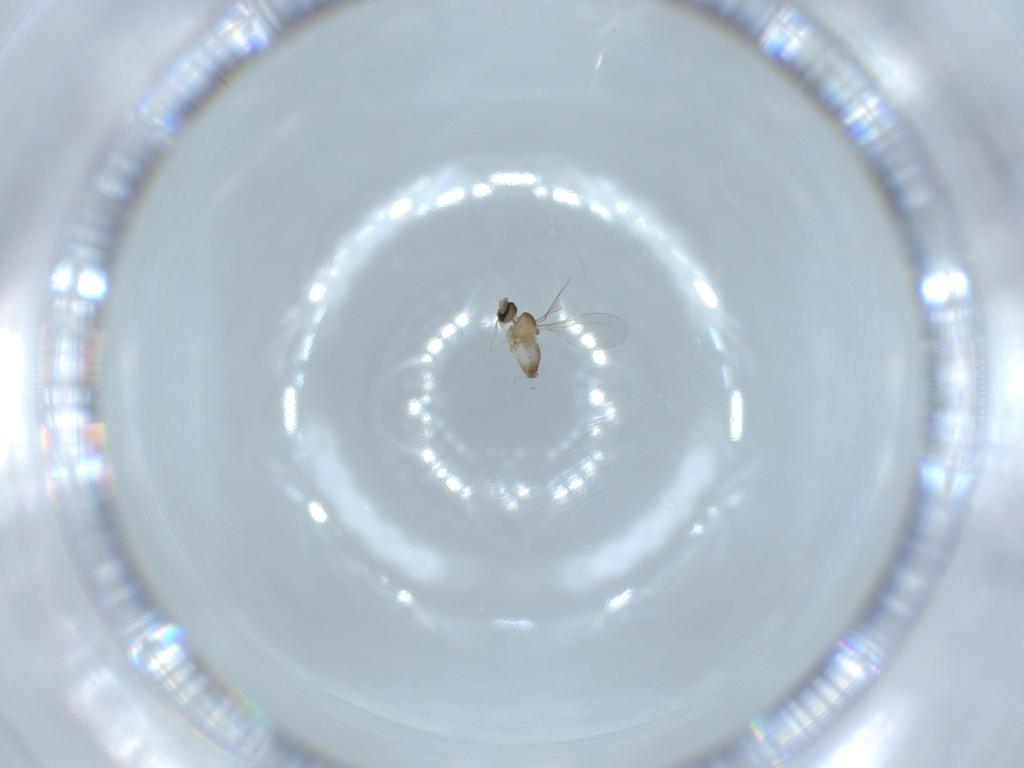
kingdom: Animalia
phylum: Arthropoda
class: Insecta
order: Diptera
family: Cecidomyiidae
